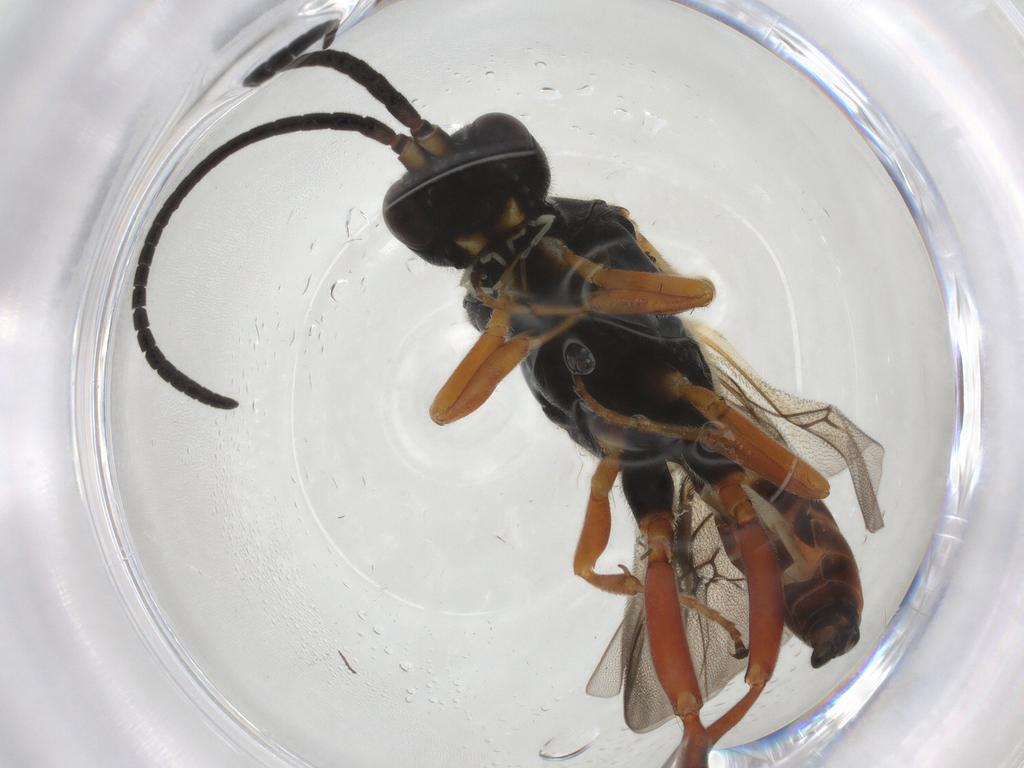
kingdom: Animalia
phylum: Arthropoda
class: Insecta
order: Hymenoptera
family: Ichneumonidae
